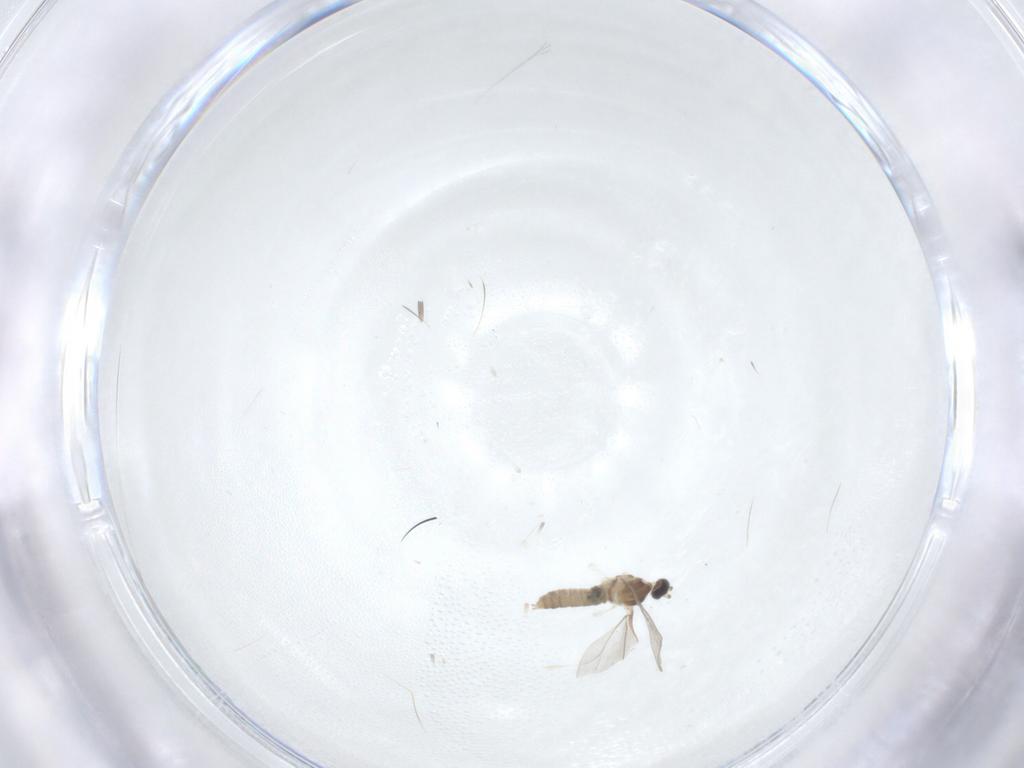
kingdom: Animalia
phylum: Arthropoda
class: Insecta
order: Diptera
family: Cecidomyiidae
